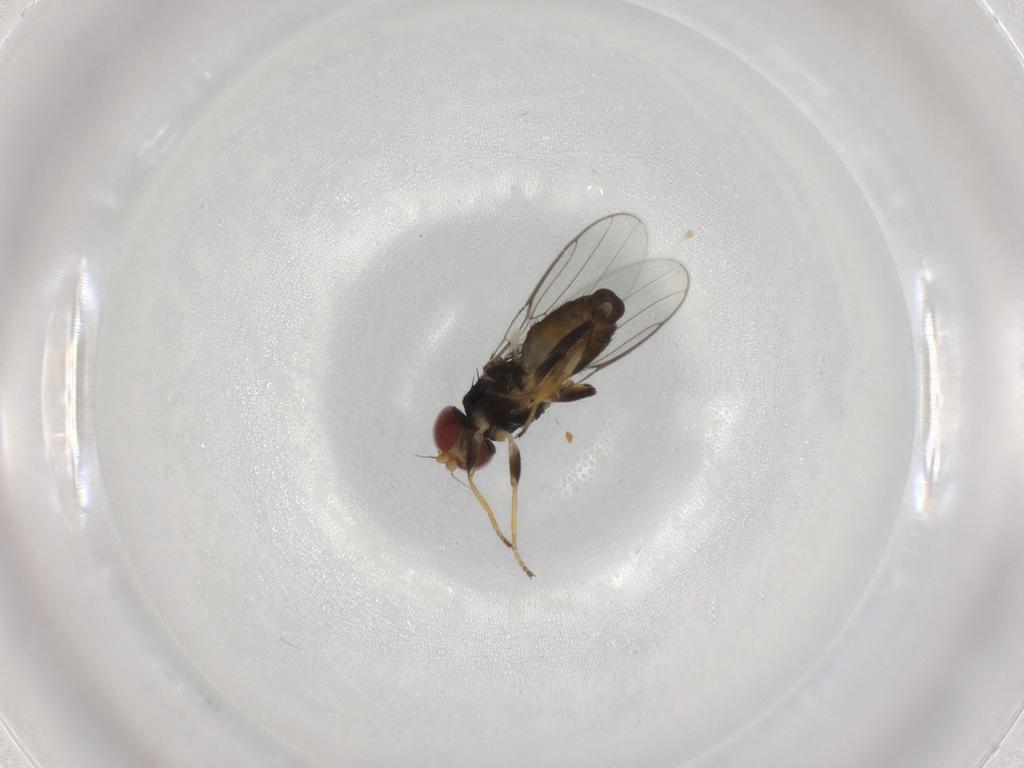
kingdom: Animalia
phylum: Arthropoda
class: Insecta
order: Diptera
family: Chloropidae
